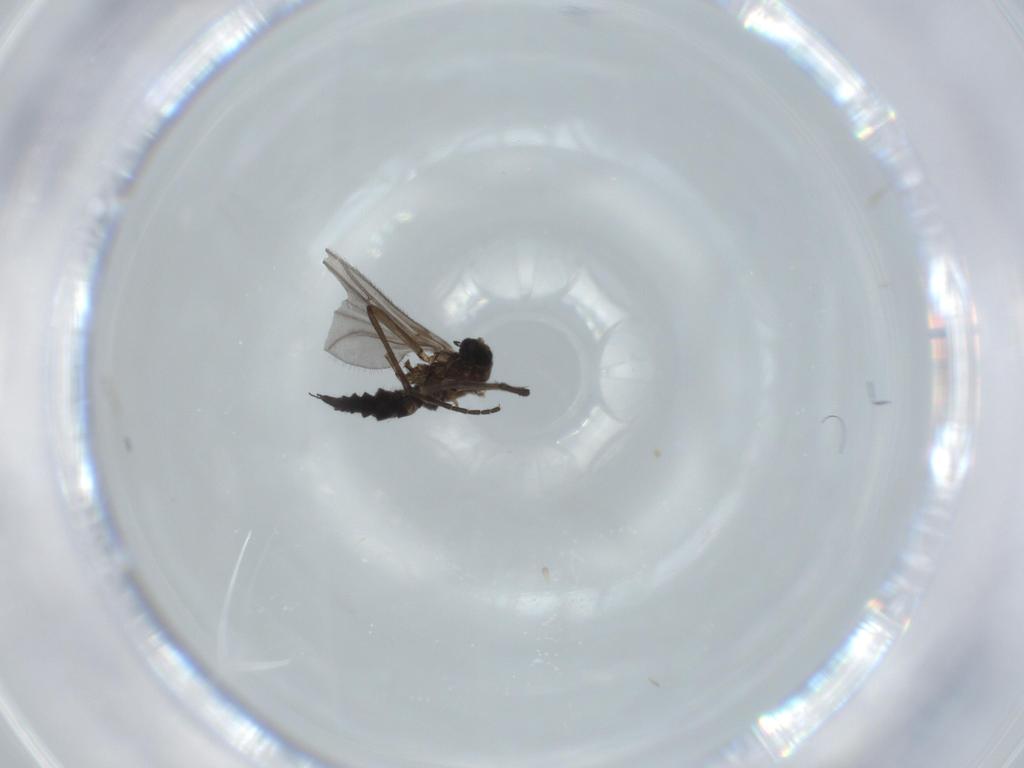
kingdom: Animalia
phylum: Arthropoda
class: Insecta
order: Diptera
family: Sciaridae
